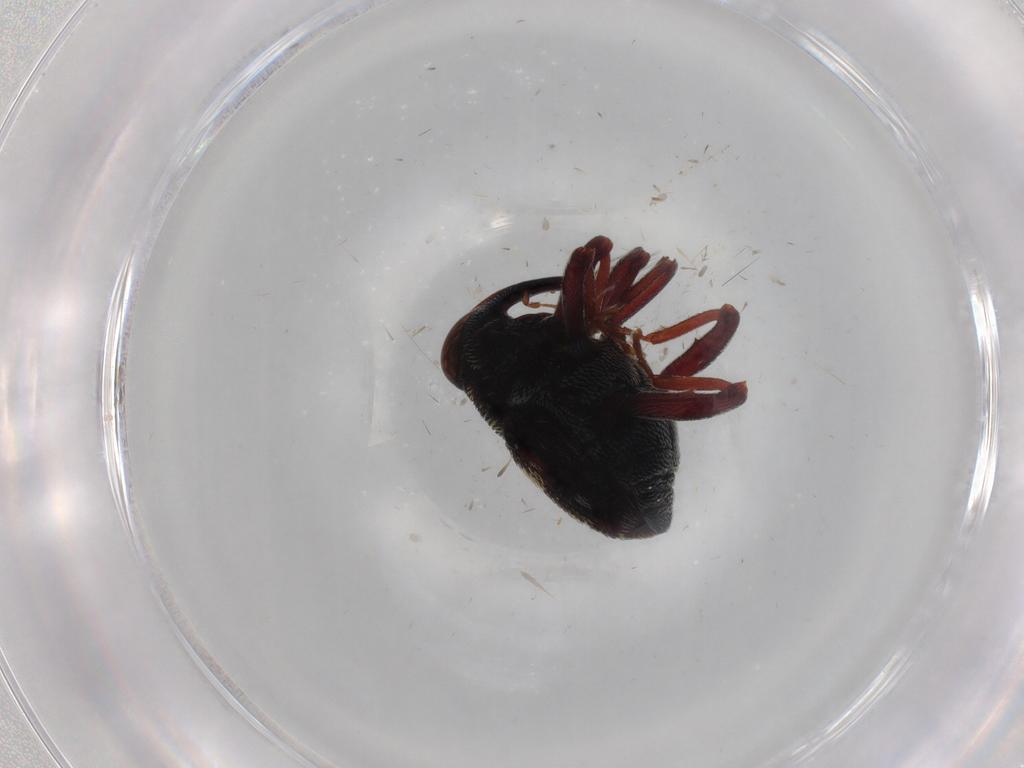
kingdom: Animalia
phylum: Arthropoda
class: Insecta
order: Coleoptera
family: Chrysomelidae
